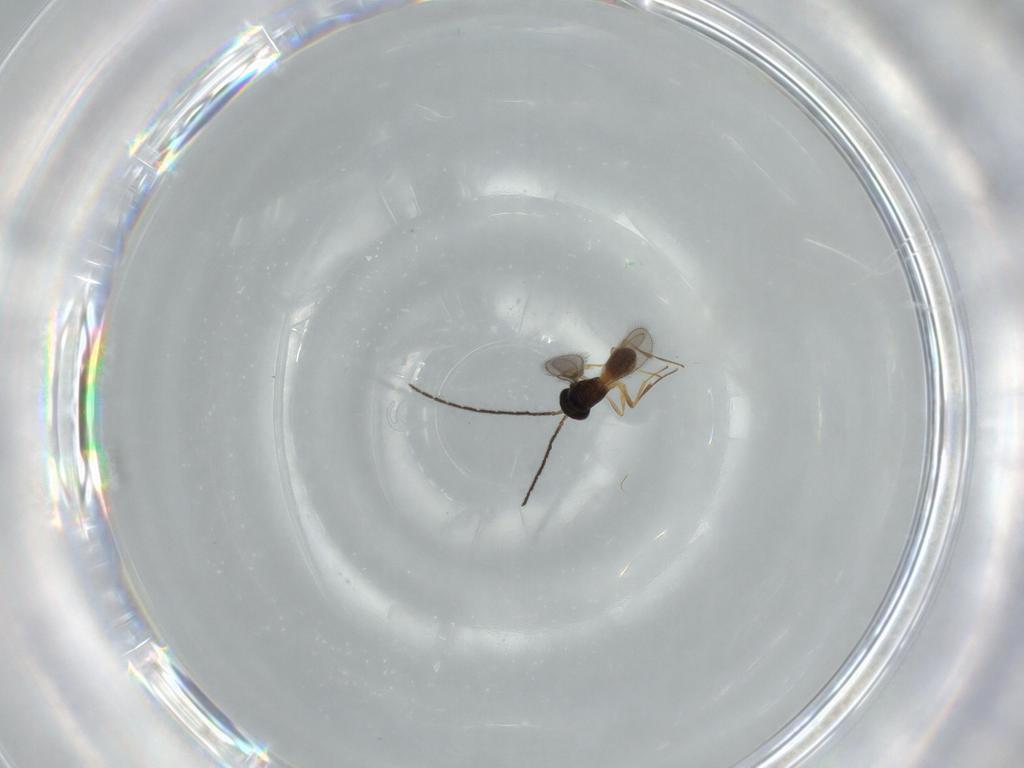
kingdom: Animalia
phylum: Arthropoda
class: Insecta
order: Hymenoptera
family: Scelionidae
